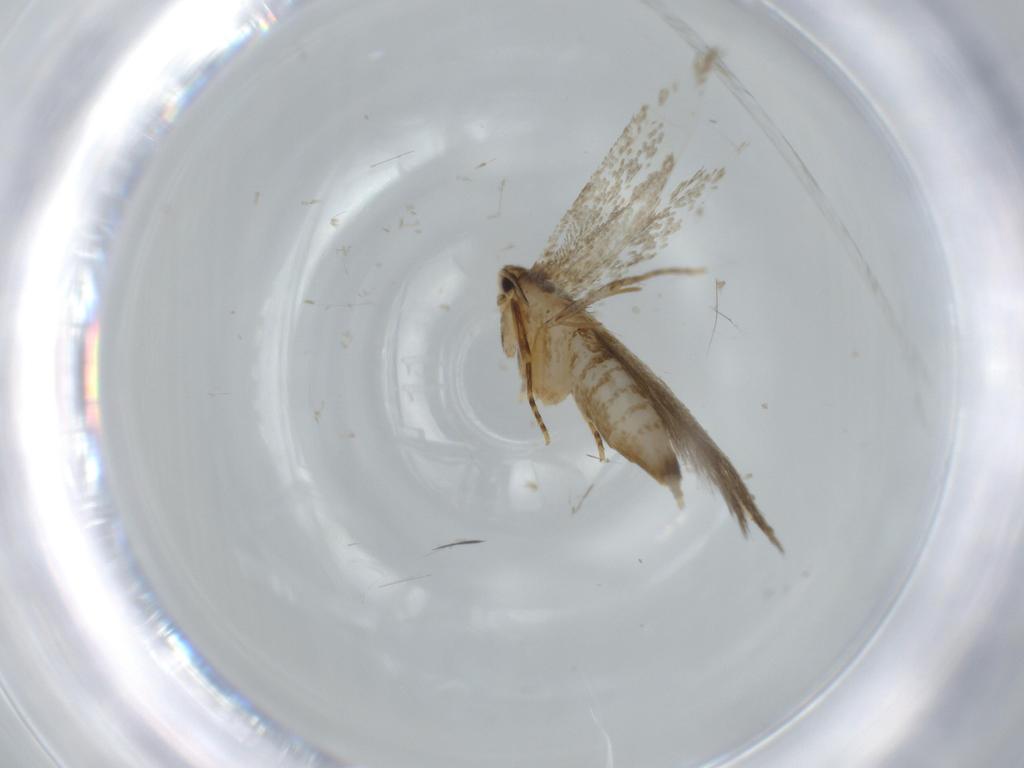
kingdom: Animalia
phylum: Arthropoda
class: Insecta
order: Lepidoptera
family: Tineidae
